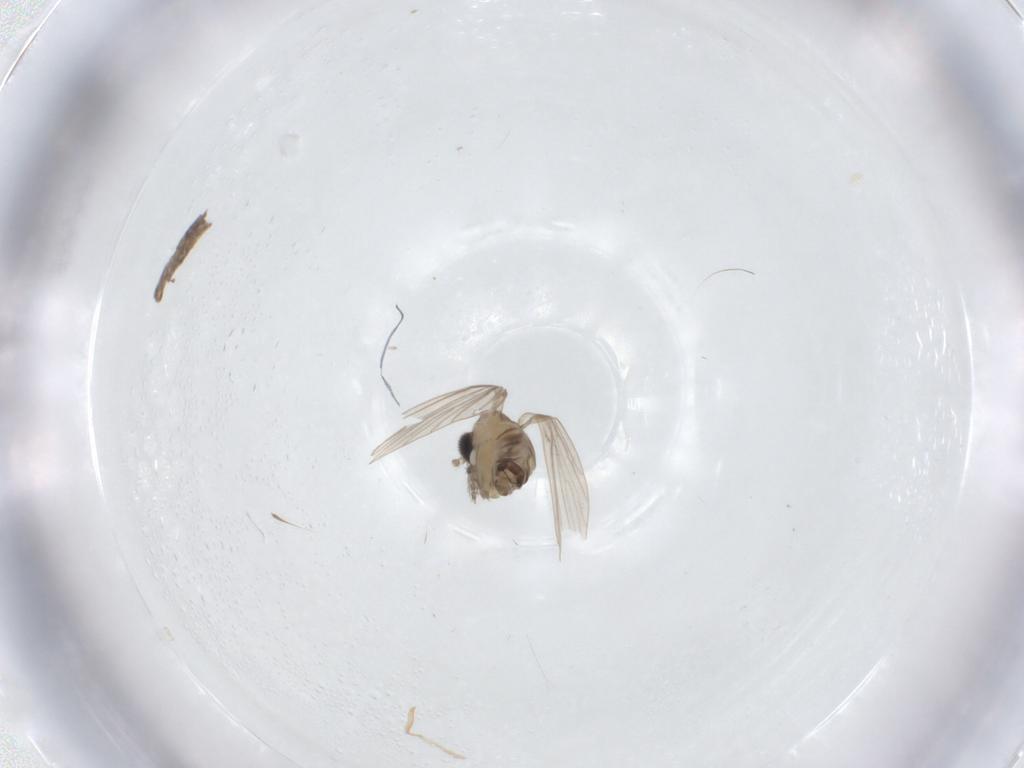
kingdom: Animalia
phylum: Arthropoda
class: Insecta
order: Diptera
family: Psychodidae
